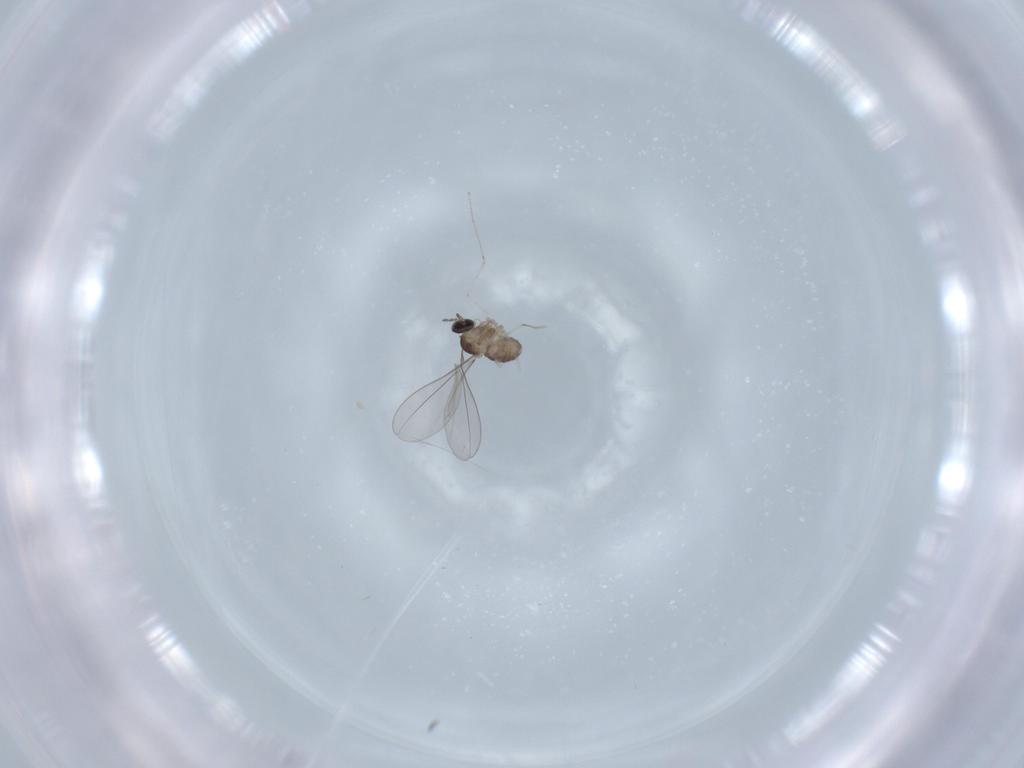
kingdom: Animalia
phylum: Arthropoda
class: Insecta
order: Diptera
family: Cecidomyiidae
